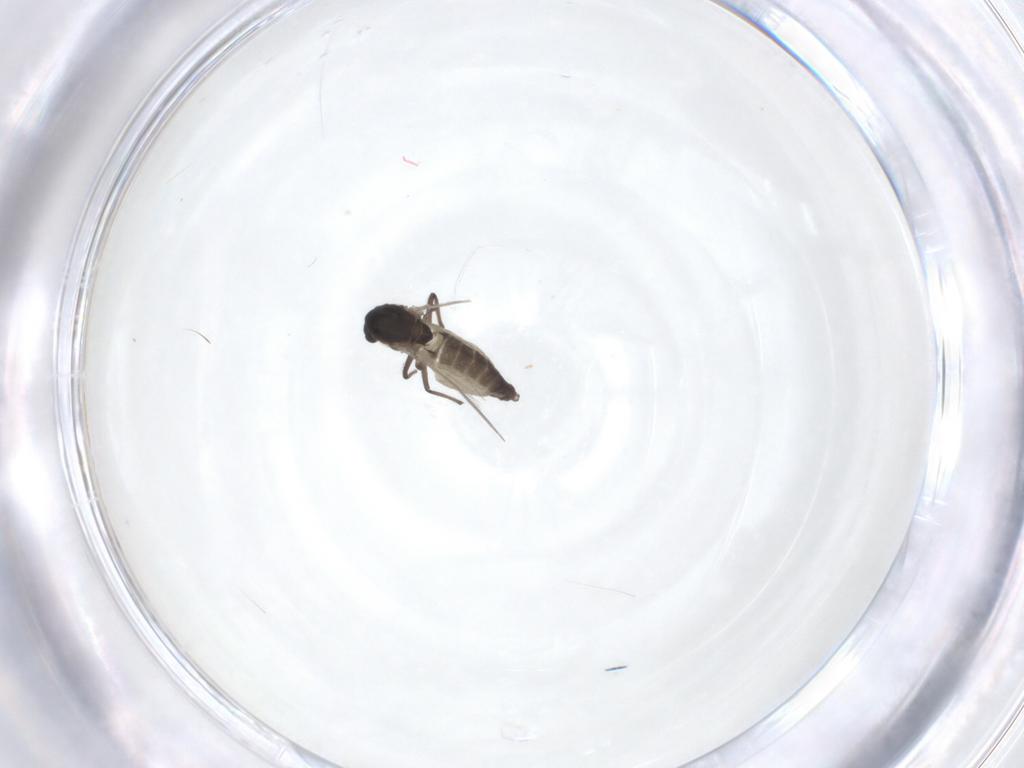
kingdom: Animalia
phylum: Arthropoda
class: Insecta
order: Diptera
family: Chironomidae
